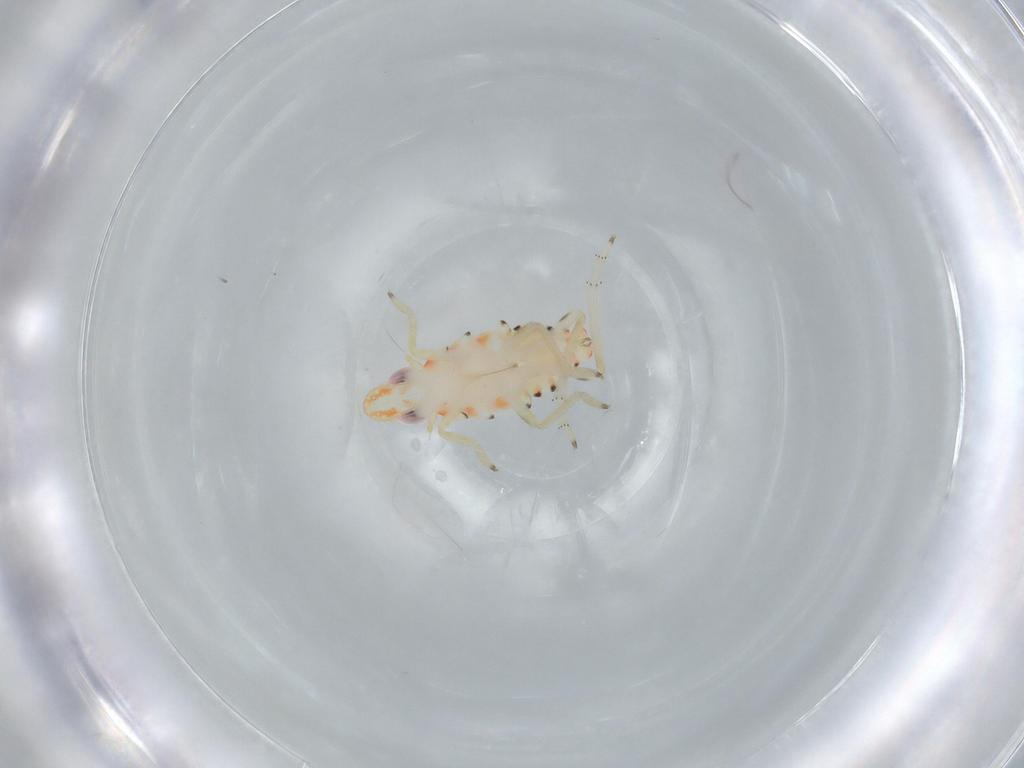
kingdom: Animalia
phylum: Arthropoda
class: Insecta
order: Hemiptera
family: Tropiduchidae
